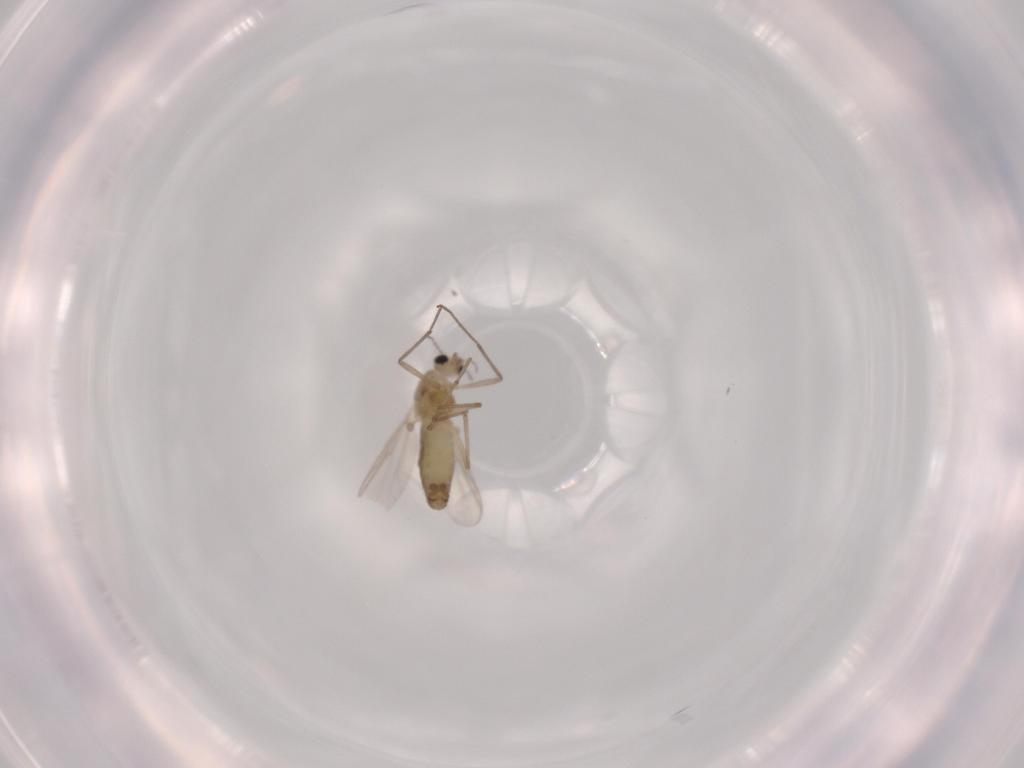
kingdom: Animalia
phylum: Arthropoda
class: Insecta
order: Diptera
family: Chironomidae
